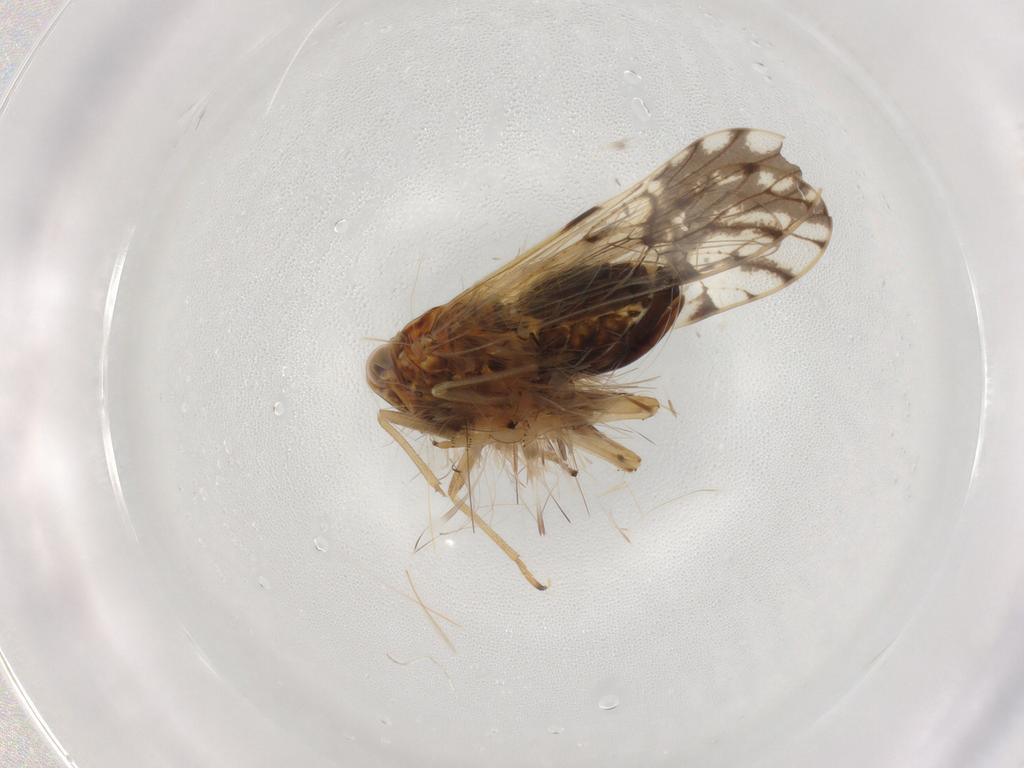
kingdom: Animalia
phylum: Arthropoda
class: Insecta
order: Hemiptera
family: Delphacidae
